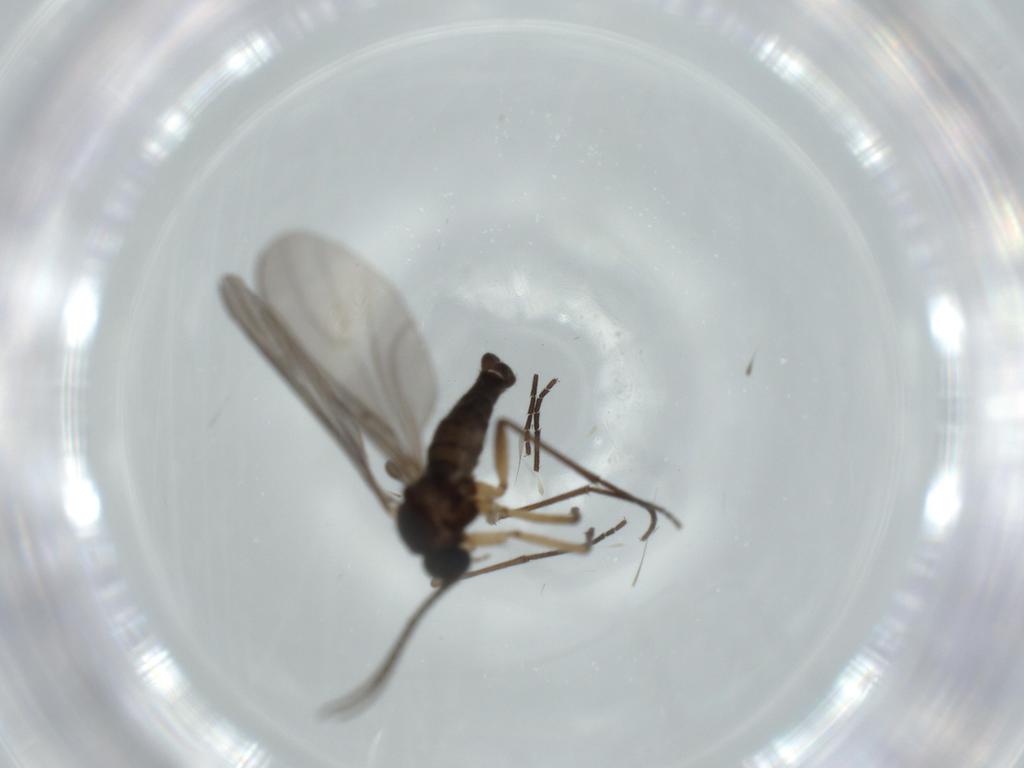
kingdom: Animalia
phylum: Arthropoda
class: Insecta
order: Diptera
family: Sciaridae
